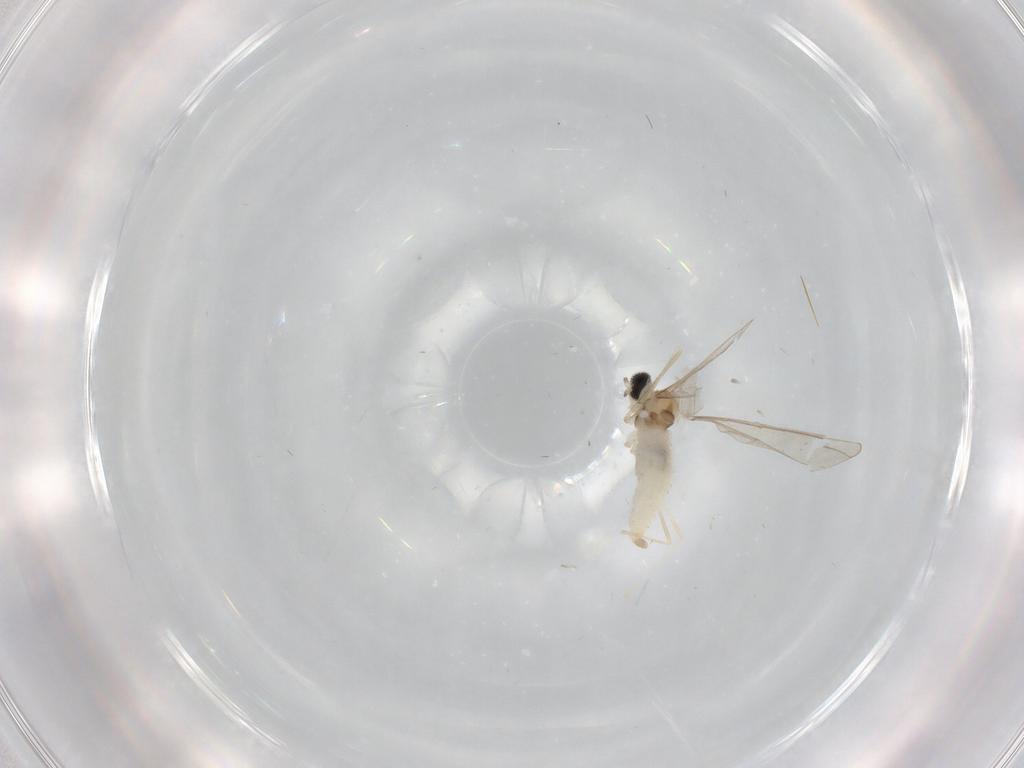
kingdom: Animalia
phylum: Arthropoda
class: Insecta
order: Diptera
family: Cecidomyiidae
